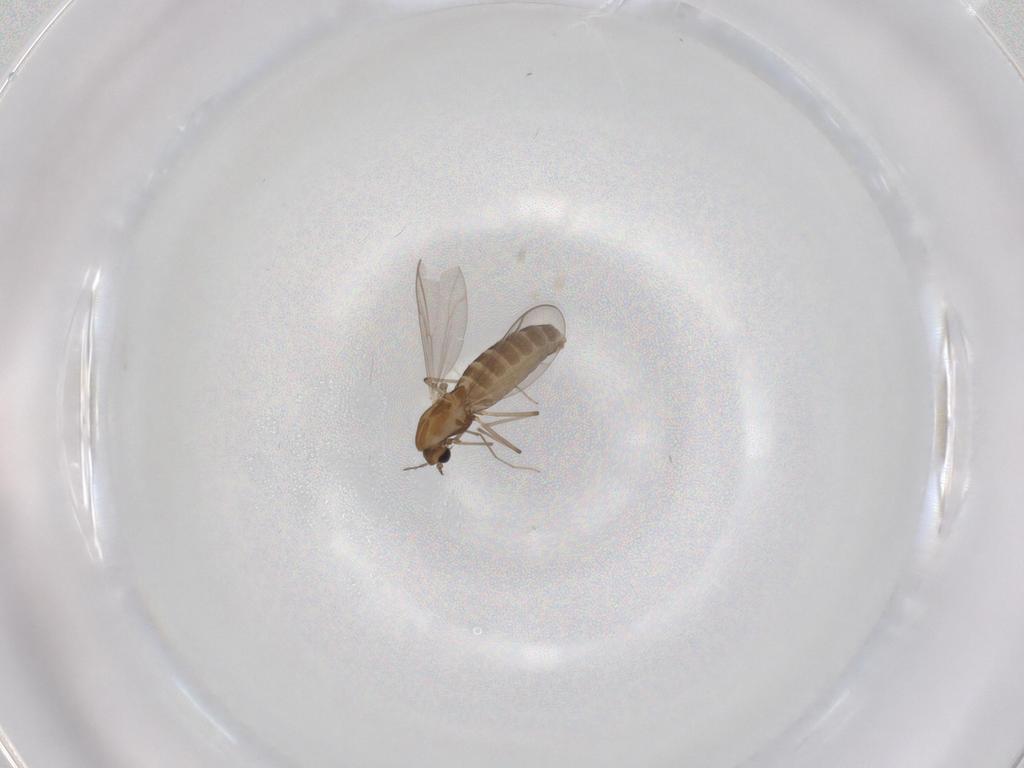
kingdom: Animalia
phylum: Arthropoda
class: Insecta
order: Diptera
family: Chironomidae
